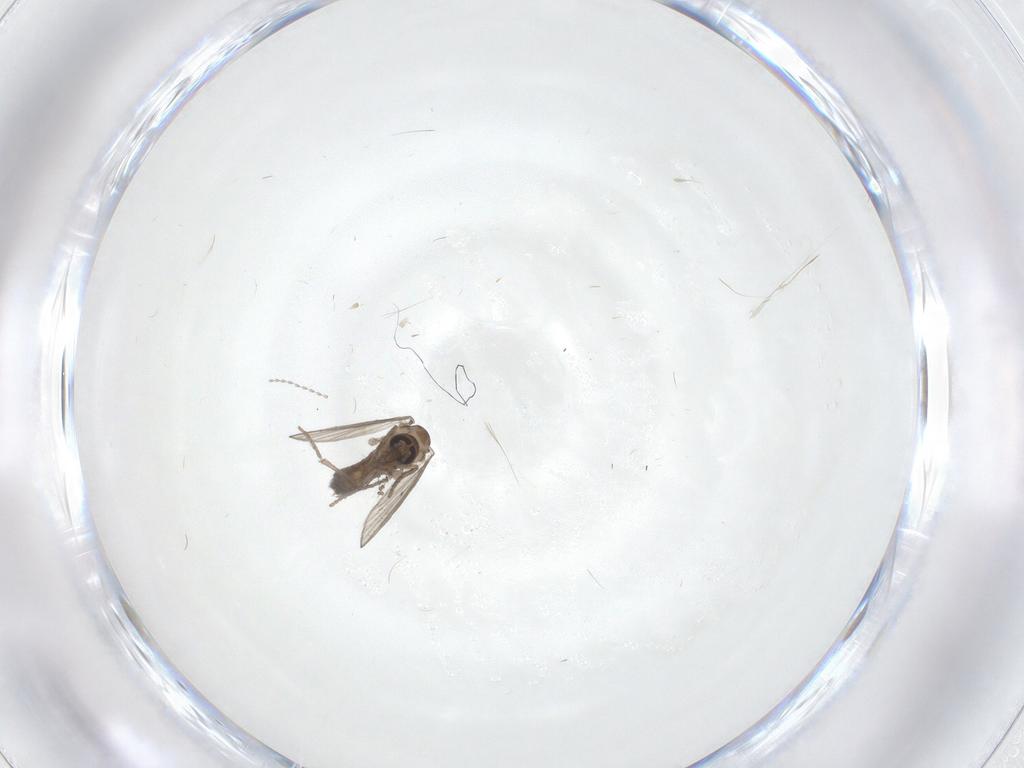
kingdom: Animalia
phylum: Arthropoda
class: Insecta
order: Diptera
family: Psychodidae
